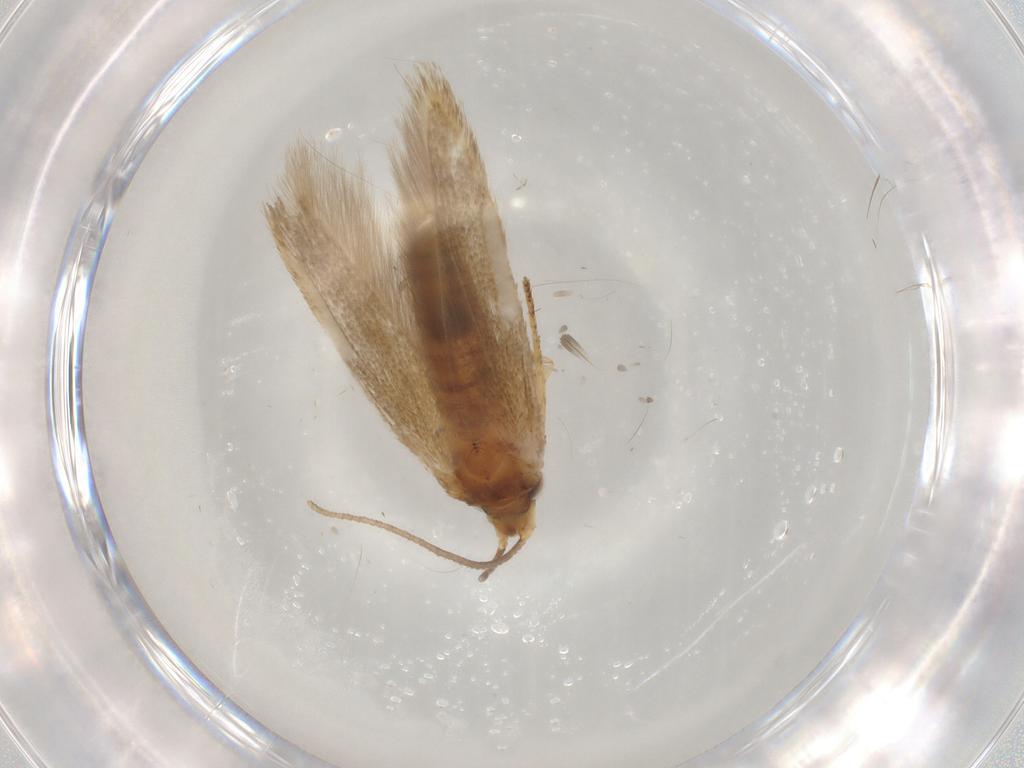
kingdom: Animalia
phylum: Arthropoda
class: Insecta
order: Lepidoptera
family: Blastobasidae
